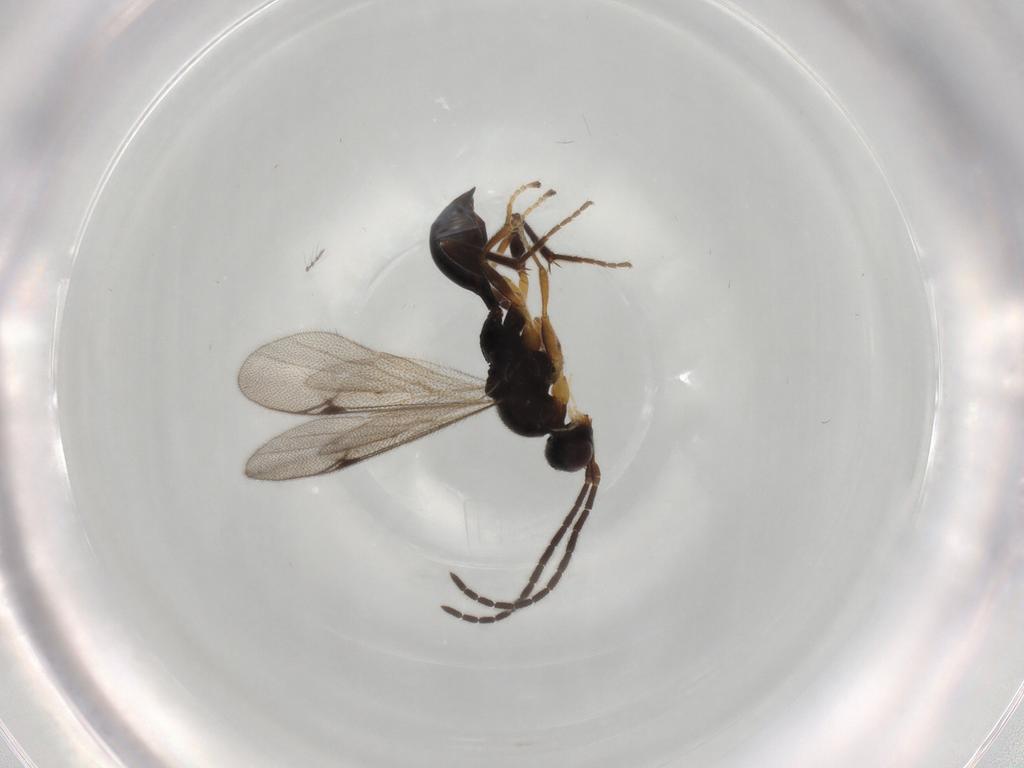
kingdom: Animalia
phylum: Arthropoda
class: Insecta
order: Hymenoptera
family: Proctotrupidae
